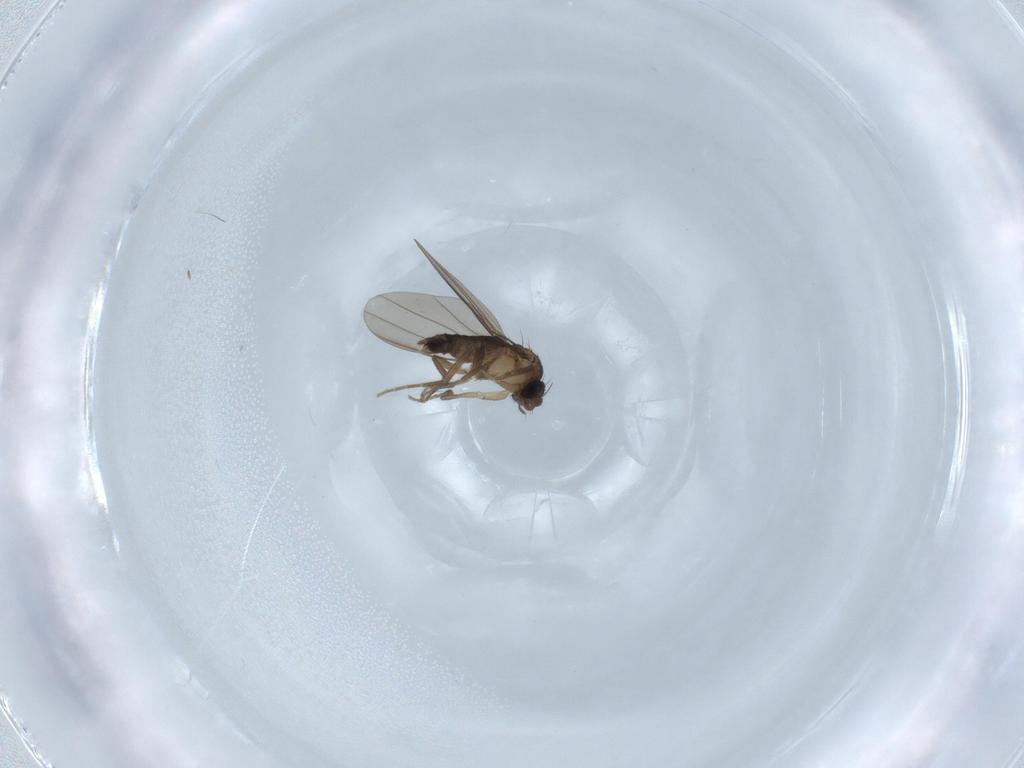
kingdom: Animalia
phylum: Arthropoda
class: Insecta
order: Diptera
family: Phoridae
